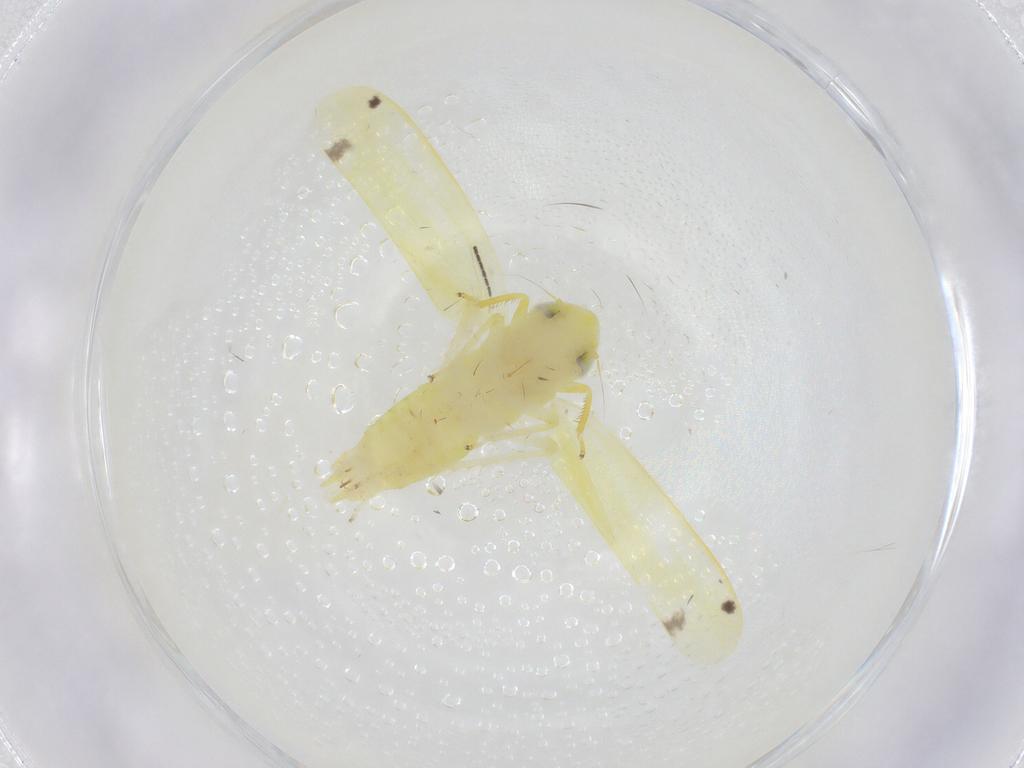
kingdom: Animalia
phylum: Arthropoda
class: Insecta
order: Hemiptera
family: Cicadellidae
